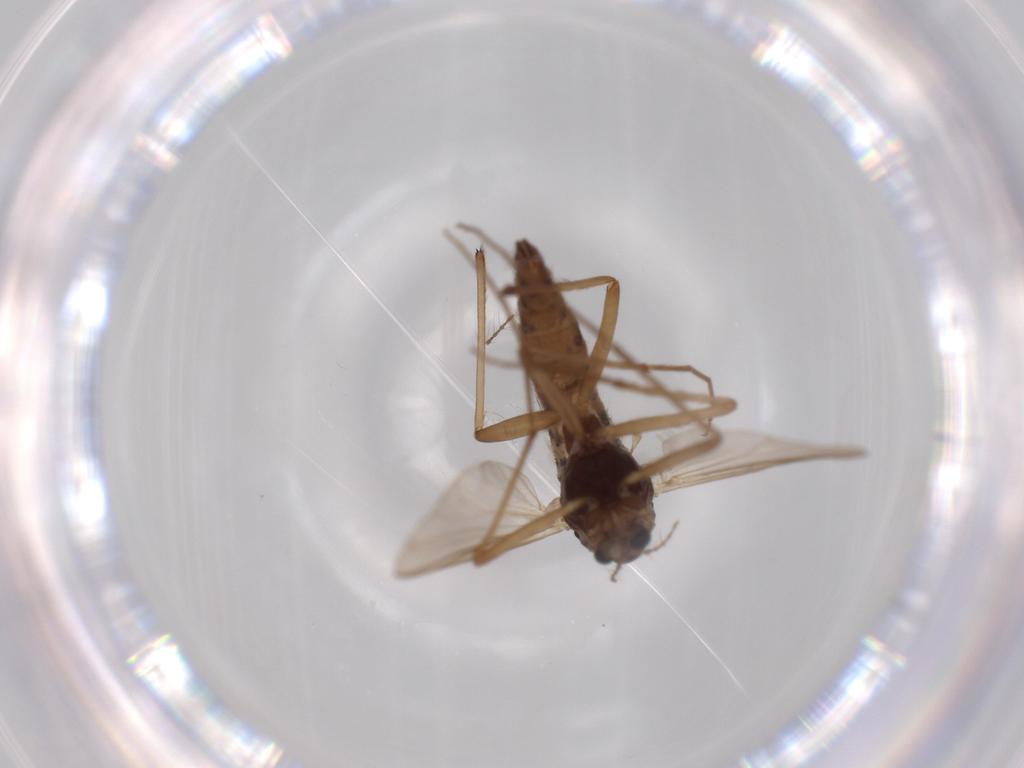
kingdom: Animalia
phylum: Arthropoda
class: Insecta
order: Diptera
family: Chironomidae
